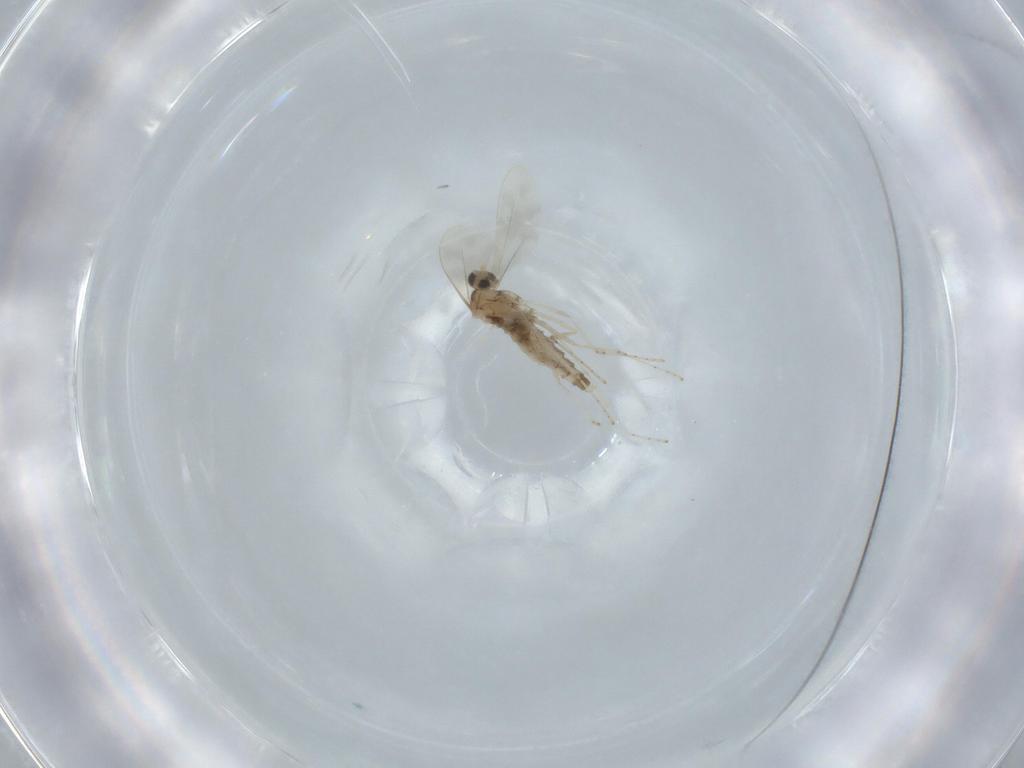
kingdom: Animalia
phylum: Arthropoda
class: Insecta
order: Diptera
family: Cecidomyiidae
